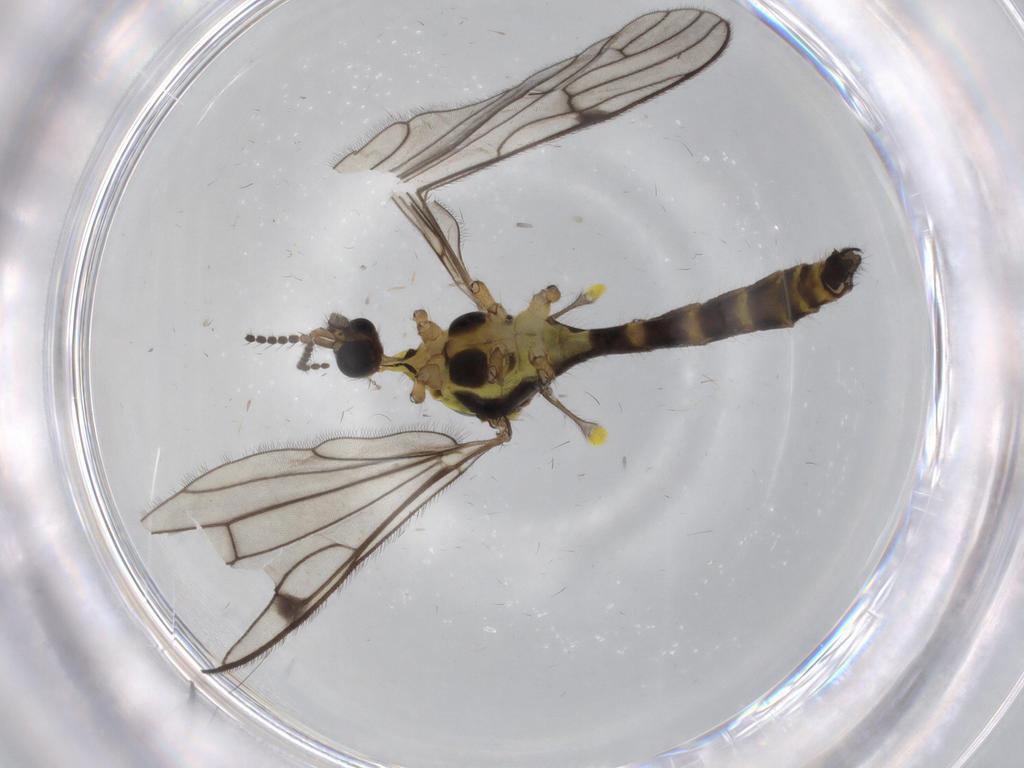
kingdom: Animalia
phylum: Arthropoda
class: Insecta
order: Diptera
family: Hybotidae
